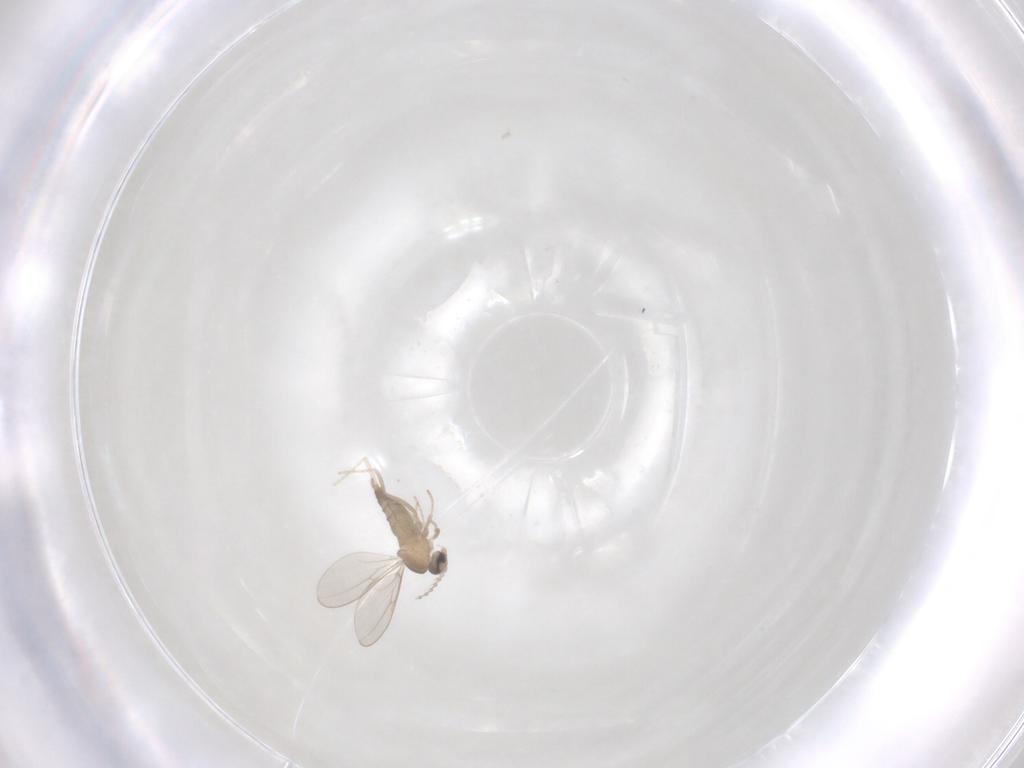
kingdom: Animalia
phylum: Arthropoda
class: Insecta
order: Diptera
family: Cecidomyiidae
